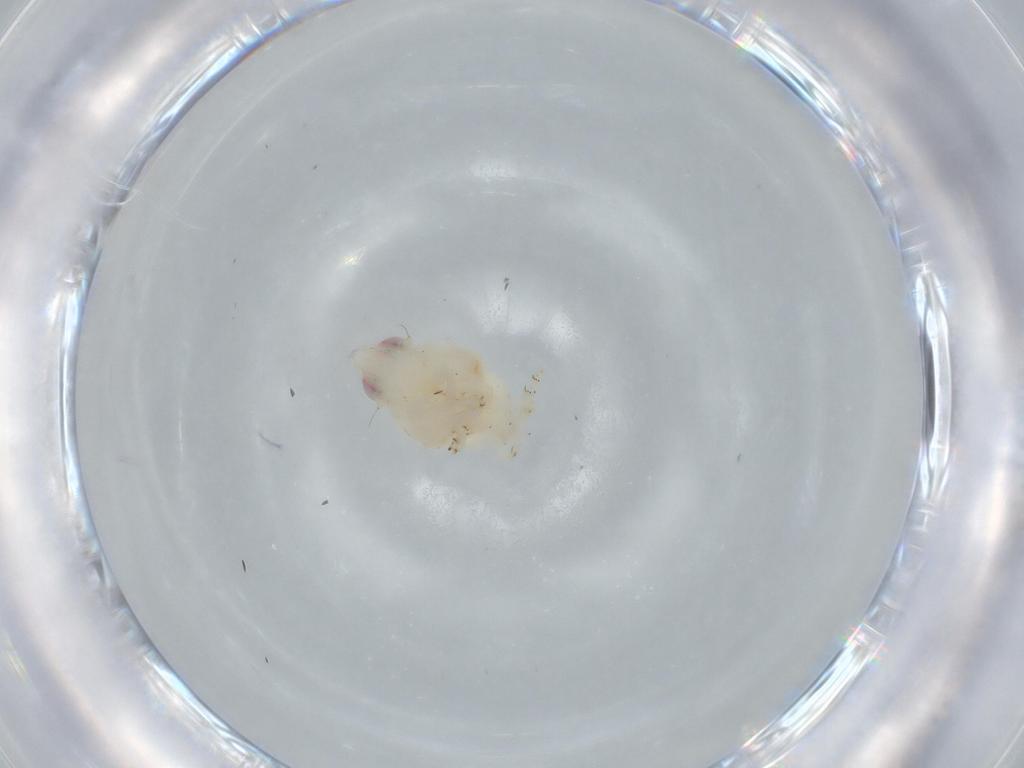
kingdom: Animalia
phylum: Arthropoda
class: Insecta
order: Hemiptera
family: Nogodinidae
